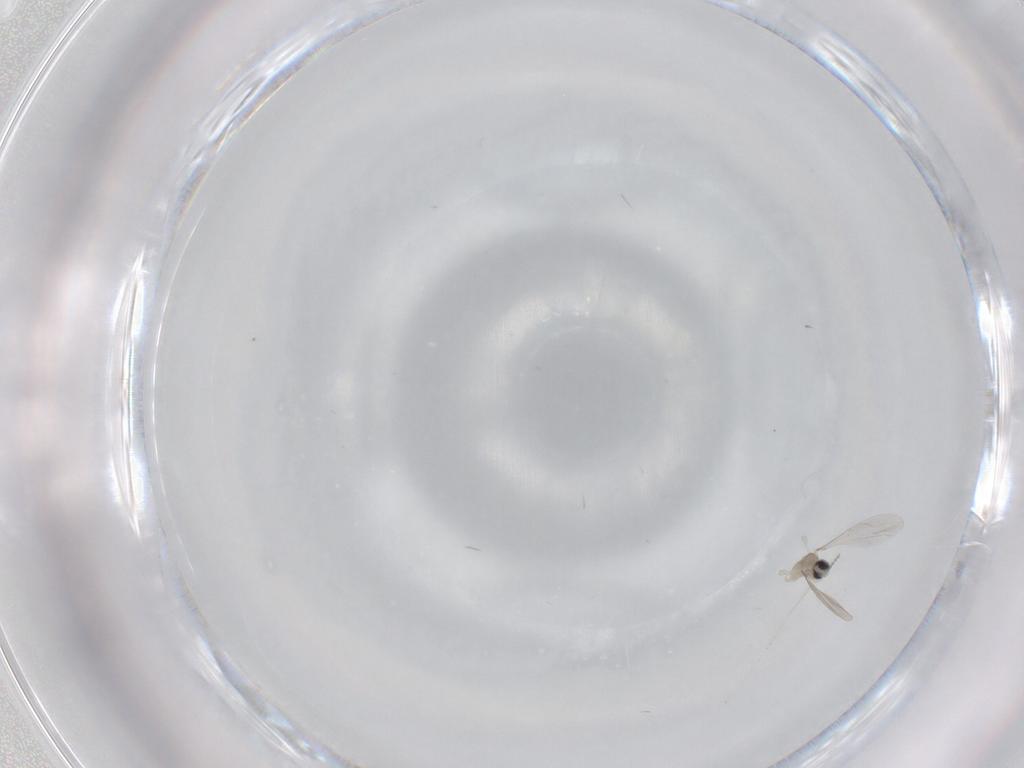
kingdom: Animalia
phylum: Arthropoda
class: Insecta
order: Diptera
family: Cecidomyiidae
